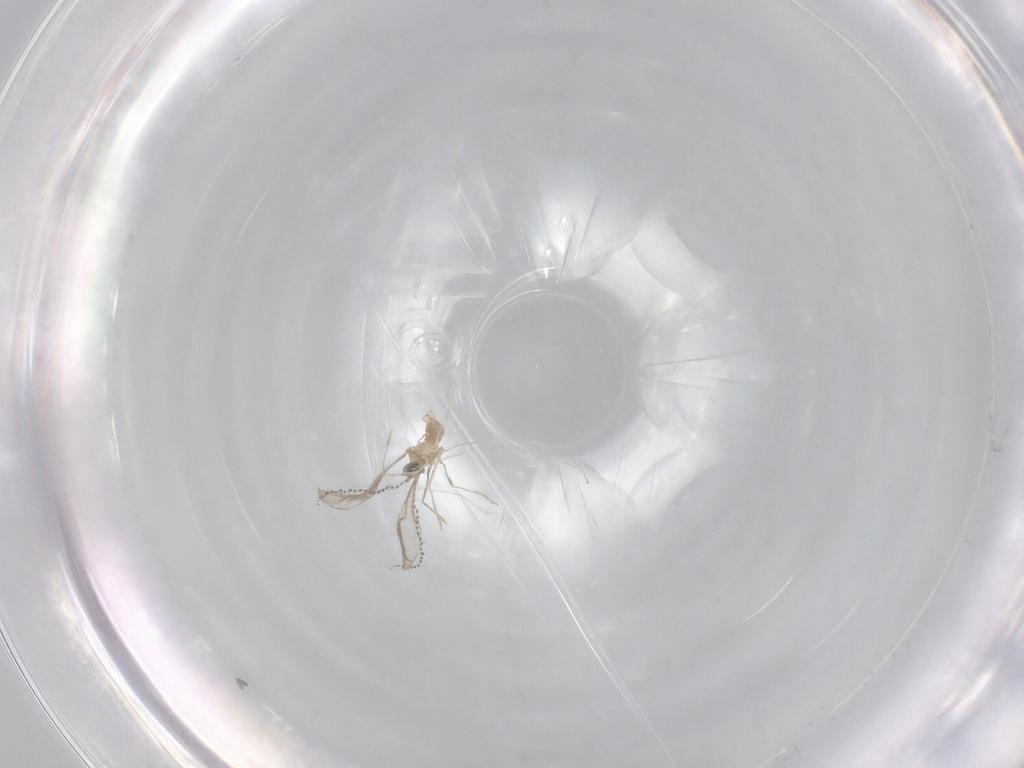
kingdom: Animalia
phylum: Arthropoda
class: Insecta
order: Diptera
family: Cecidomyiidae
